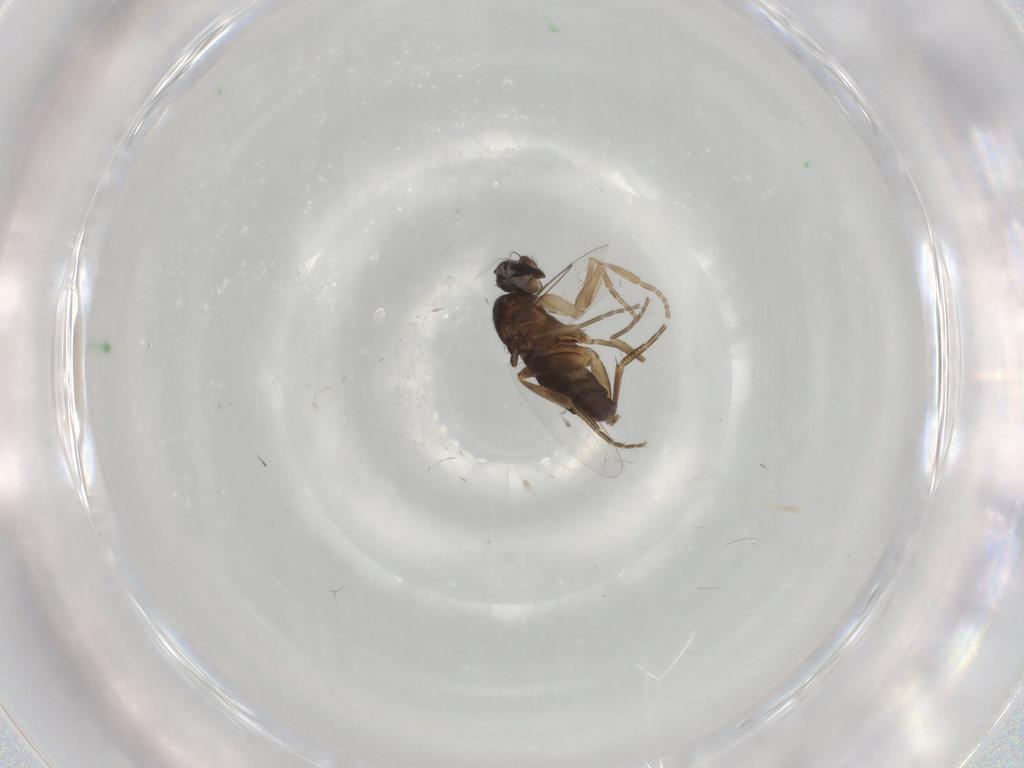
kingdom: Animalia
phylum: Arthropoda
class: Insecta
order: Diptera
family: Phoridae
